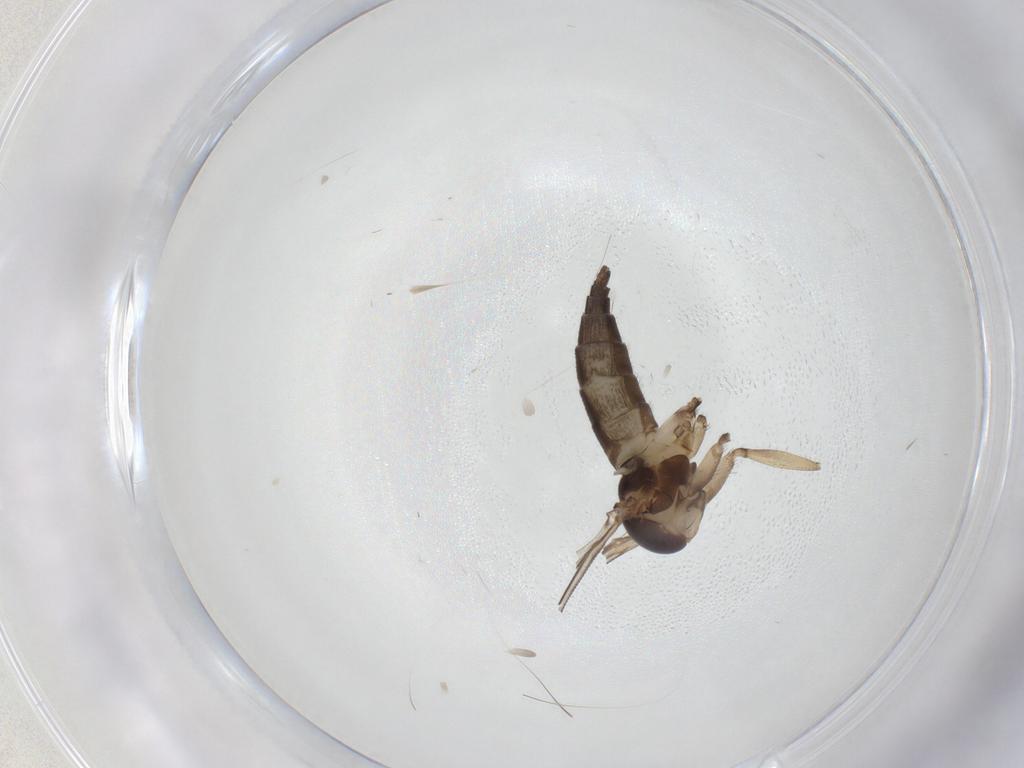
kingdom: Animalia
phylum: Arthropoda
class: Insecta
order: Diptera
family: Sciaridae
